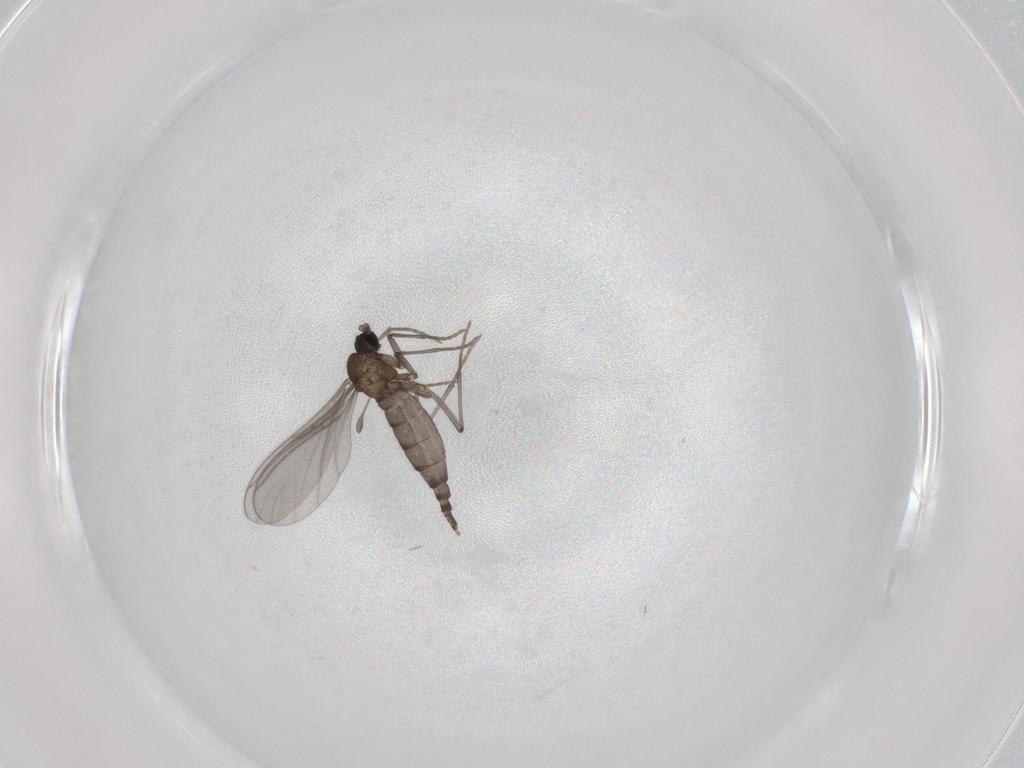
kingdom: Animalia
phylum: Arthropoda
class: Insecta
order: Diptera
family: Sciaridae
